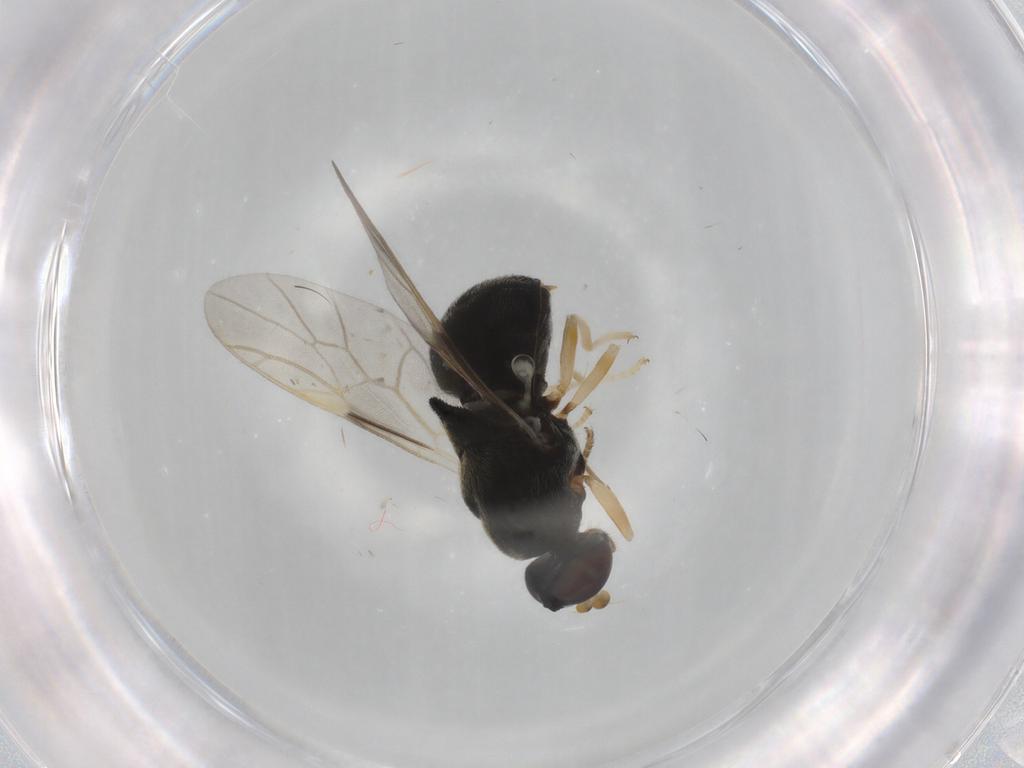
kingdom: Animalia
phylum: Arthropoda
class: Insecta
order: Diptera
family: Stratiomyidae
